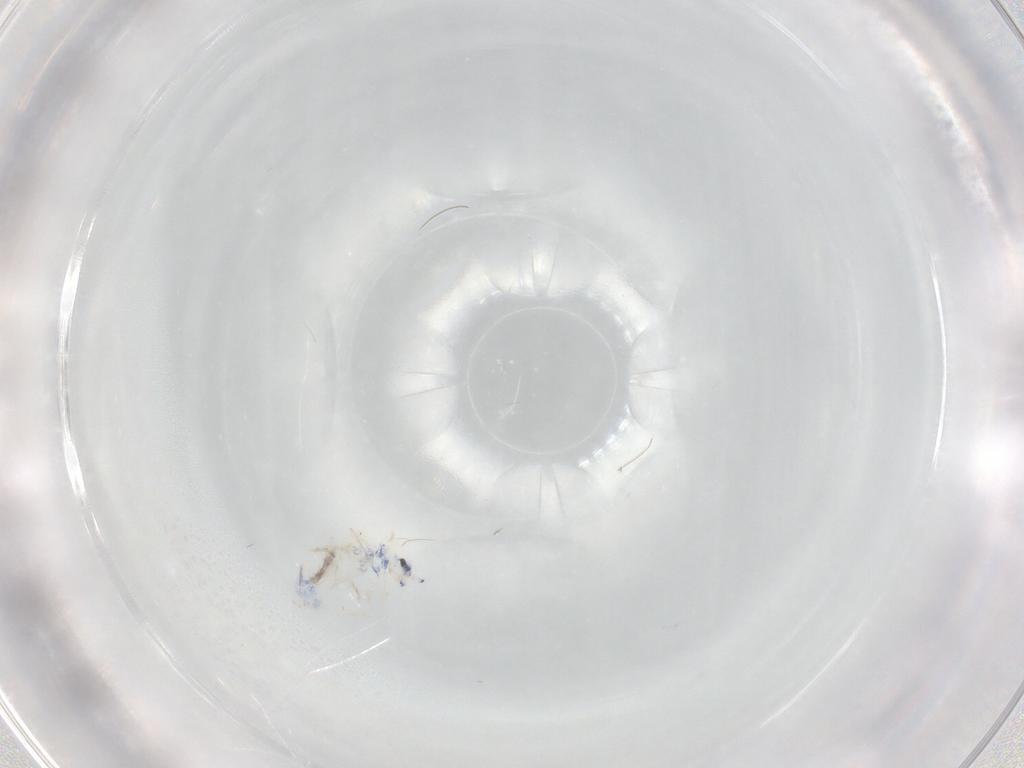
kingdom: Animalia
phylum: Arthropoda
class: Collembola
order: Entomobryomorpha
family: Entomobryidae
